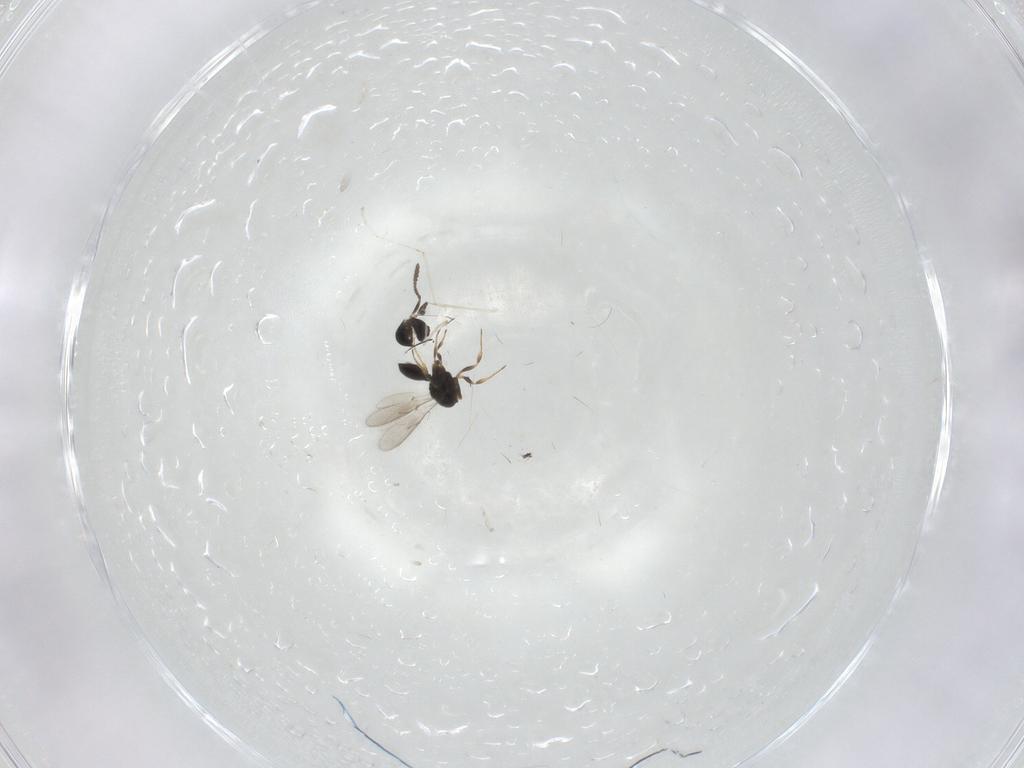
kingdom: Animalia
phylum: Arthropoda
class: Insecta
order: Hymenoptera
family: Scelionidae
